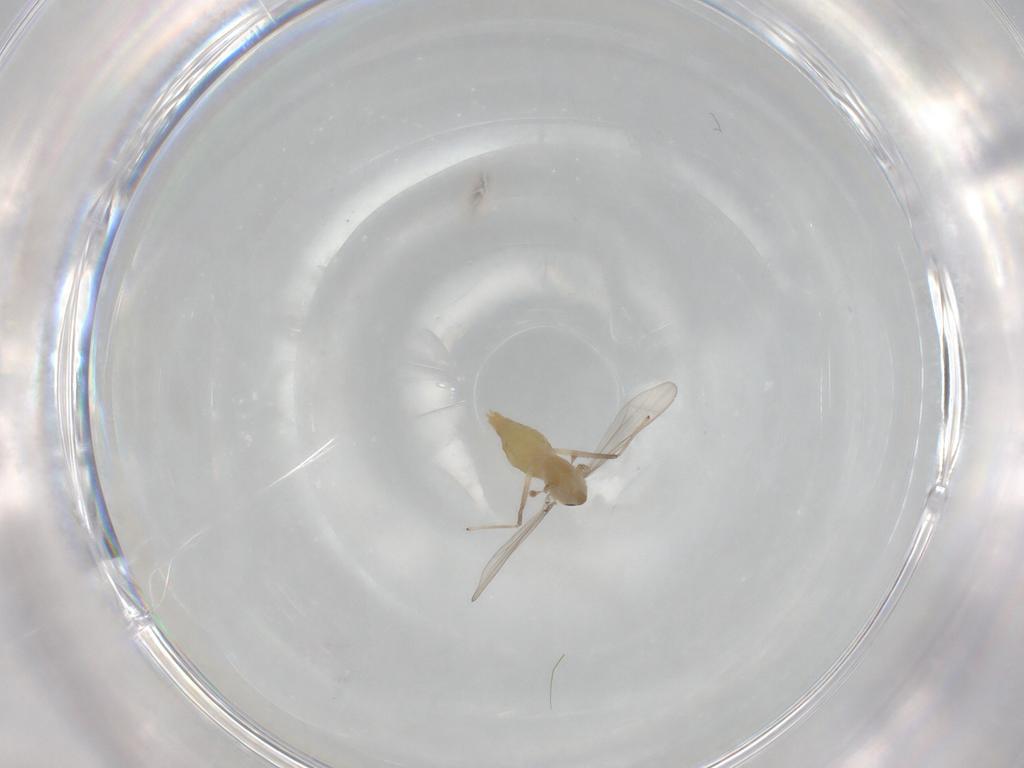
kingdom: Animalia
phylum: Arthropoda
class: Insecta
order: Diptera
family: Chironomidae
